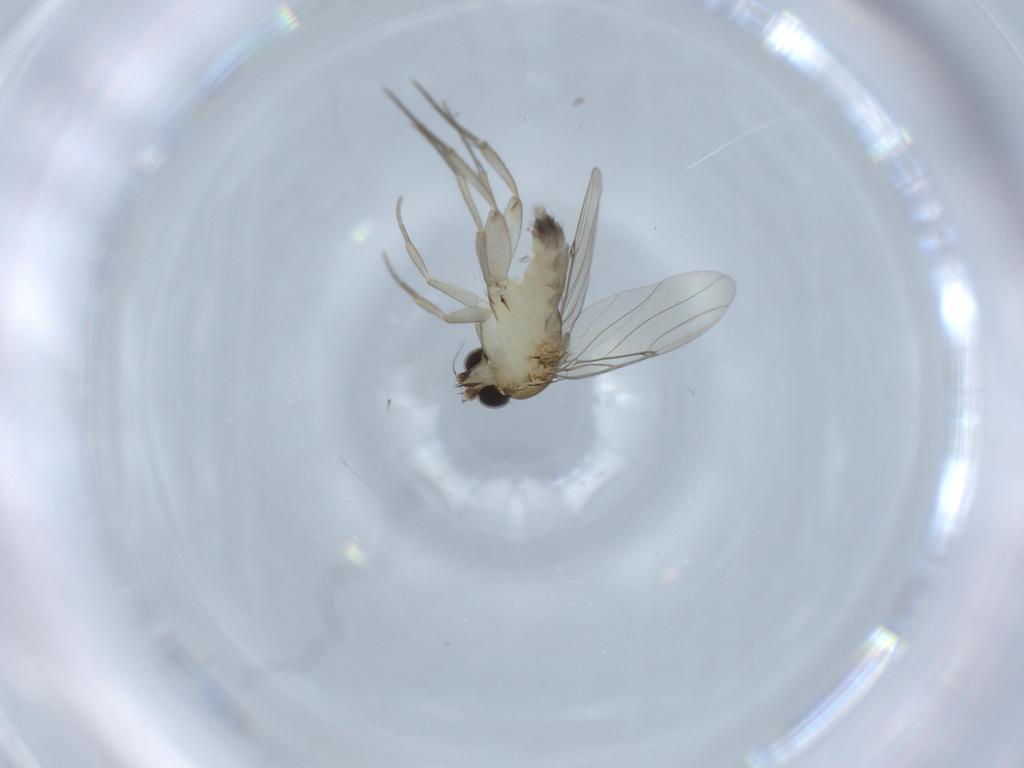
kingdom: Animalia
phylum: Arthropoda
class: Insecta
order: Diptera
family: Phoridae
